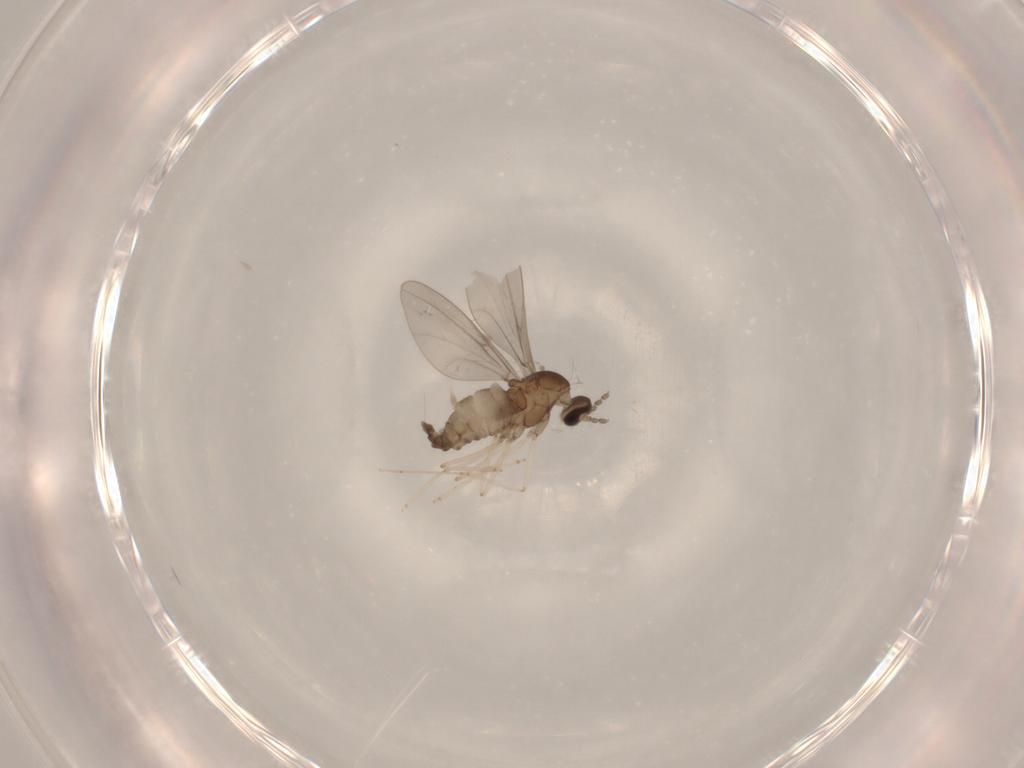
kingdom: Animalia
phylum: Arthropoda
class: Insecta
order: Diptera
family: Cecidomyiidae
